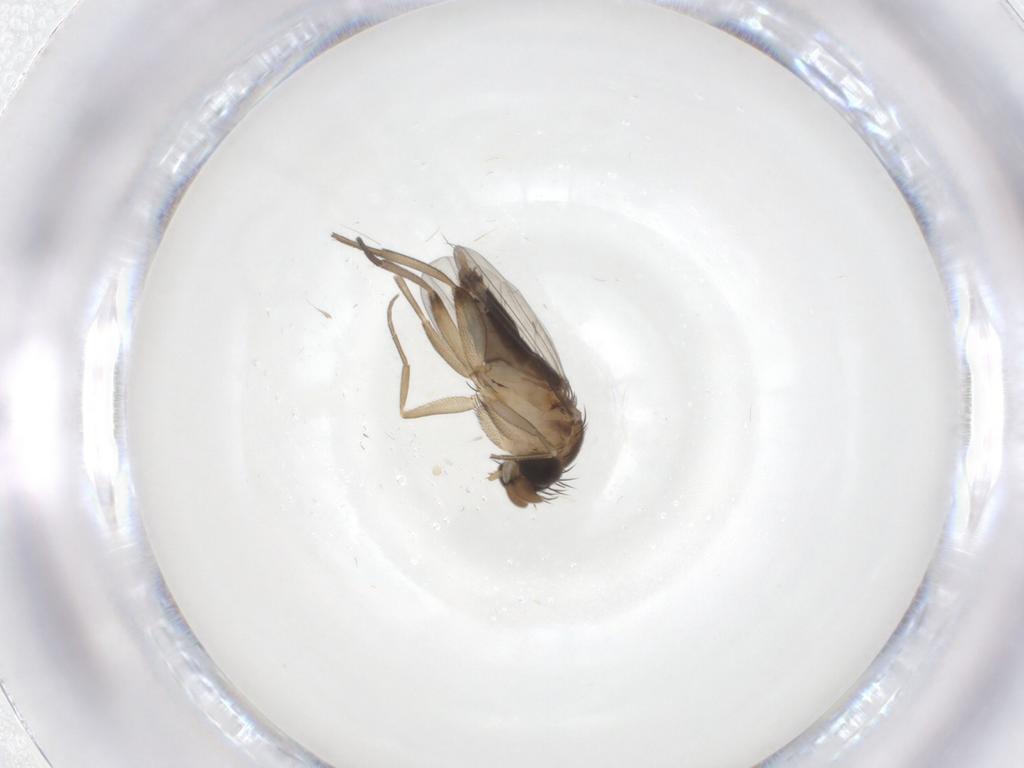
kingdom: Animalia
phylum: Arthropoda
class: Insecta
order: Diptera
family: Phoridae
